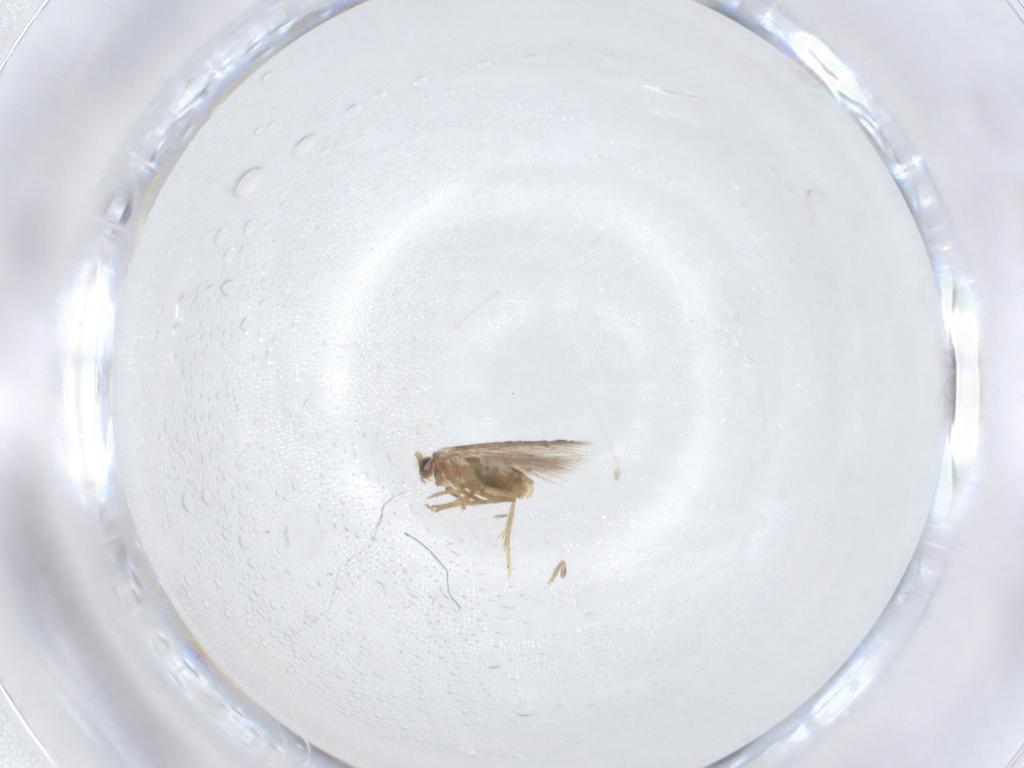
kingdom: Animalia
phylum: Arthropoda
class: Insecta
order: Lepidoptera
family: Nepticulidae
